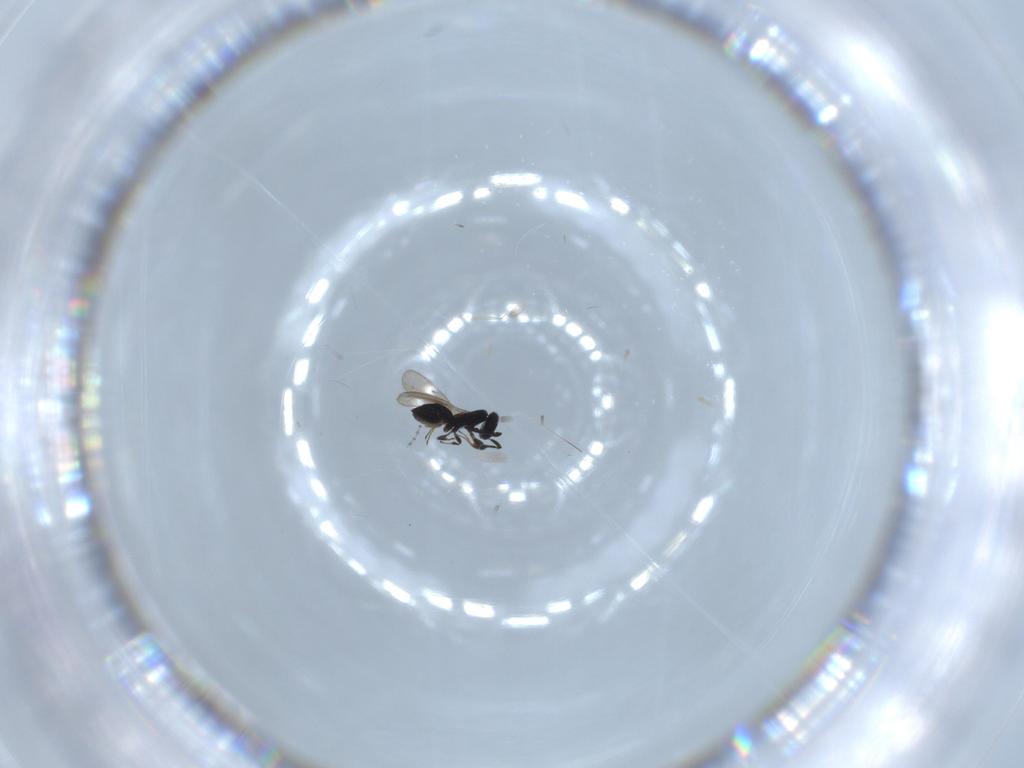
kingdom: Animalia
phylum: Arthropoda
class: Insecta
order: Hymenoptera
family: Scelionidae
